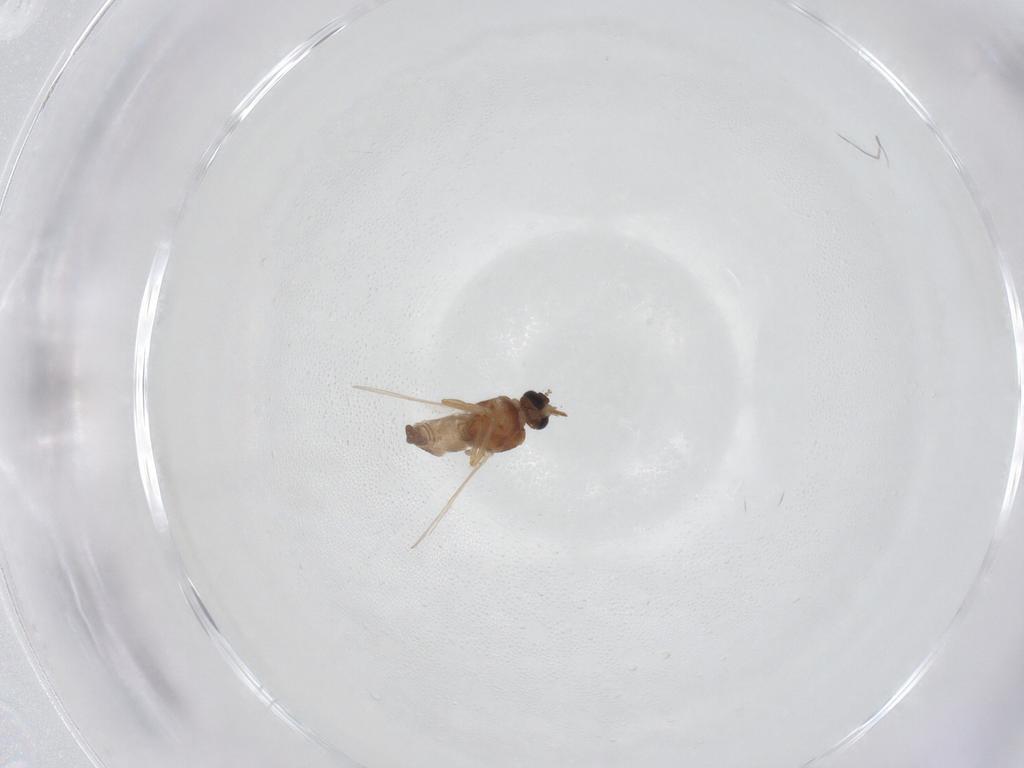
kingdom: Animalia
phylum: Arthropoda
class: Insecta
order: Diptera
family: Ceratopogonidae
